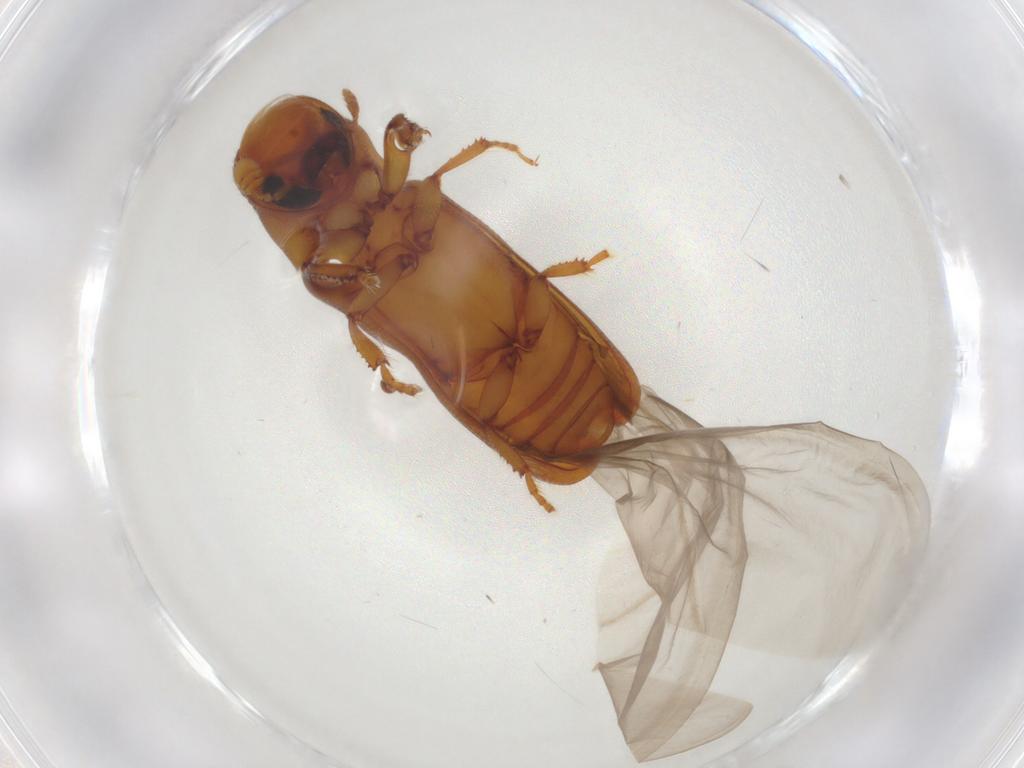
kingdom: Animalia
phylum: Arthropoda
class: Insecta
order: Coleoptera
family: Curculionidae
